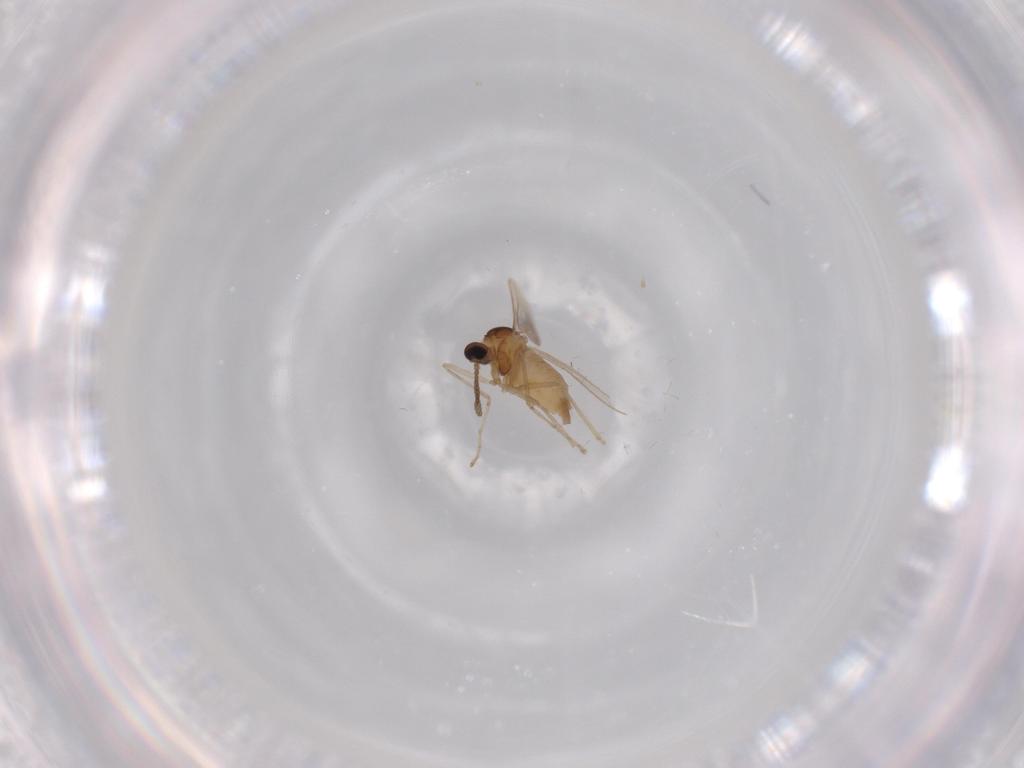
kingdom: Animalia
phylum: Arthropoda
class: Insecta
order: Diptera
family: Cecidomyiidae
